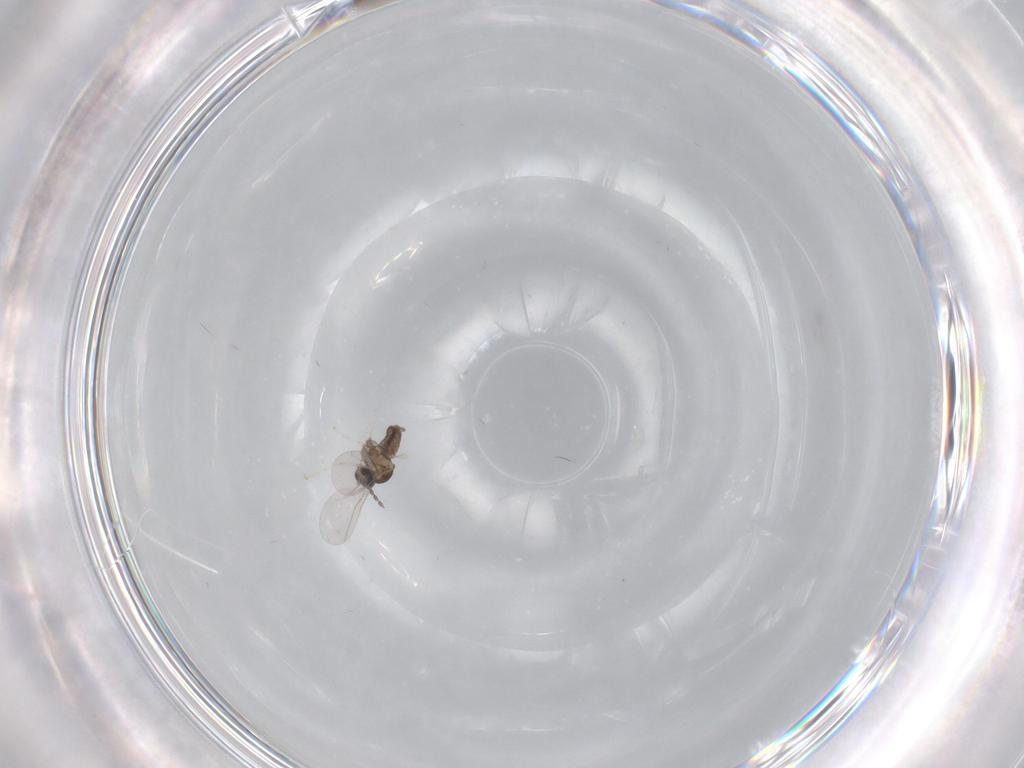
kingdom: Animalia
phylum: Arthropoda
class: Insecta
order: Diptera
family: Cecidomyiidae
